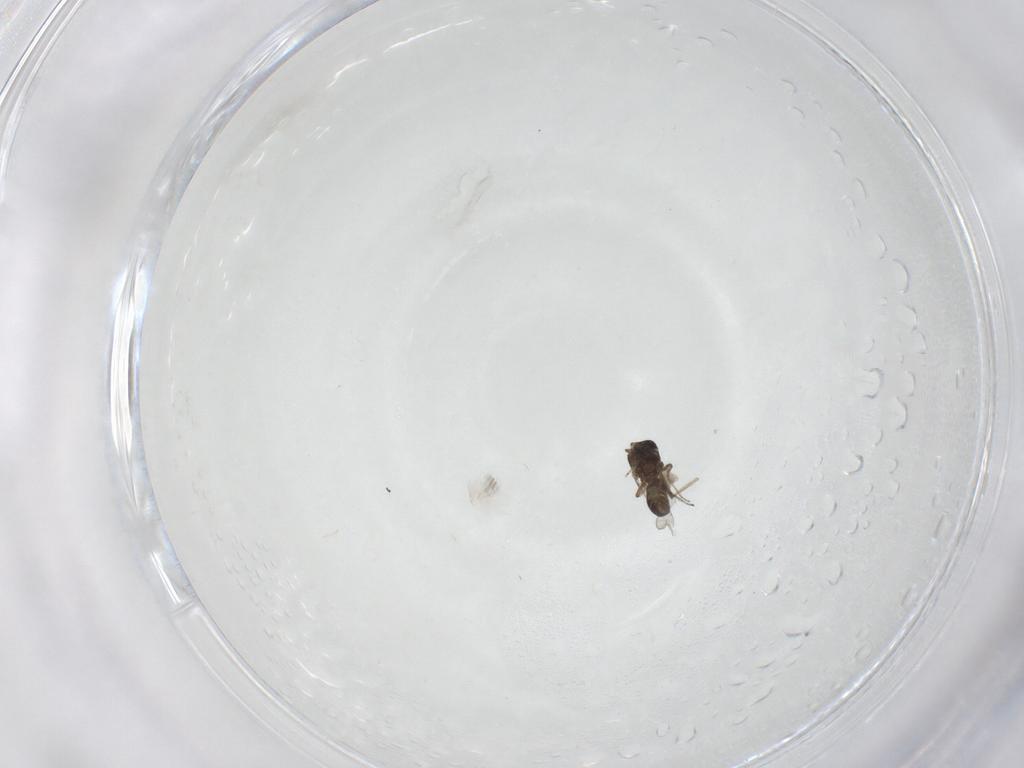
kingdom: Animalia
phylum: Arthropoda
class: Insecta
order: Diptera
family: Ceratopogonidae
